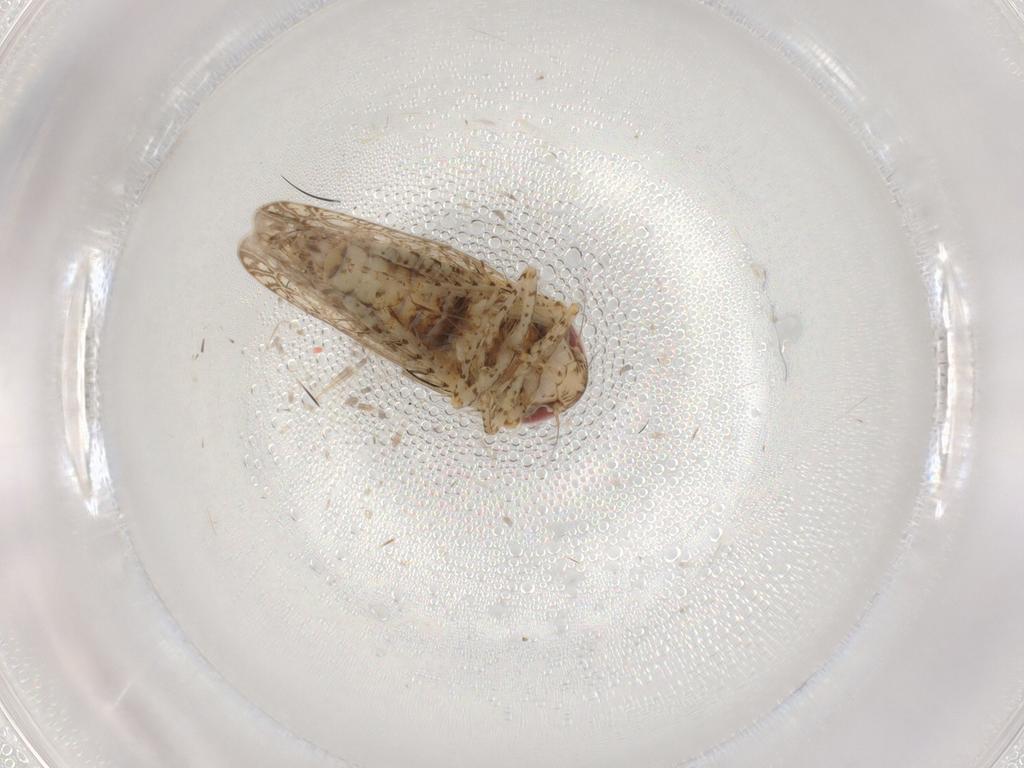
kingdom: Animalia
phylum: Arthropoda
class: Insecta
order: Hemiptera
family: Cicadellidae
